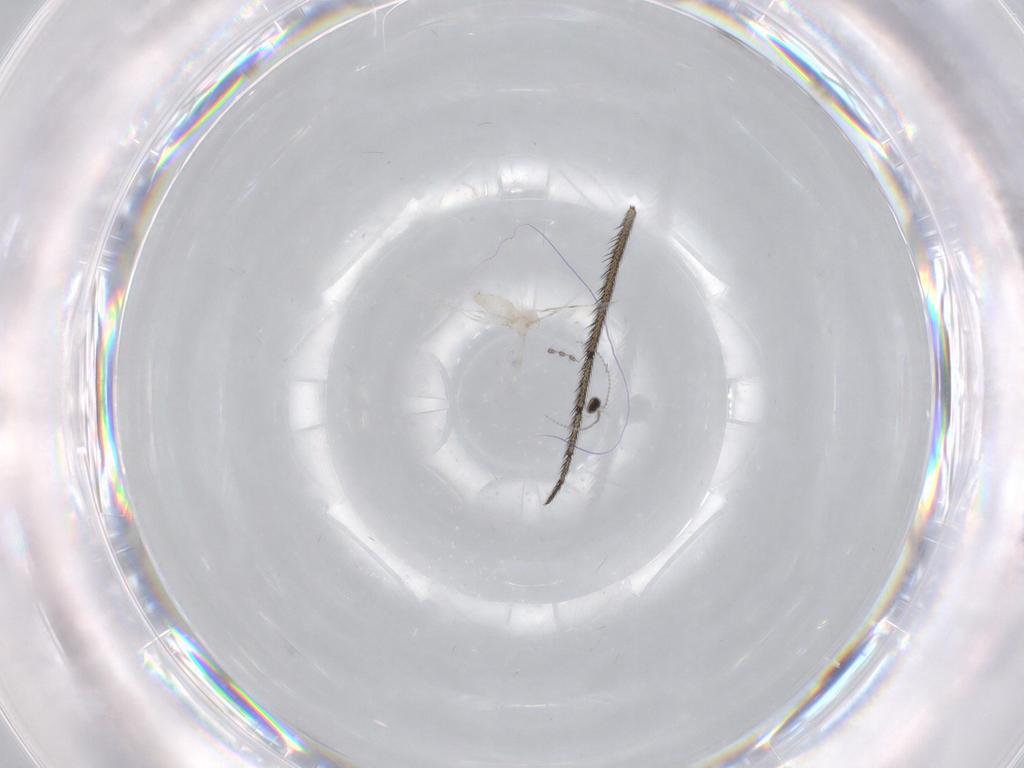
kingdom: Animalia
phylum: Arthropoda
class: Insecta
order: Diptera
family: Cecidomyiidae
